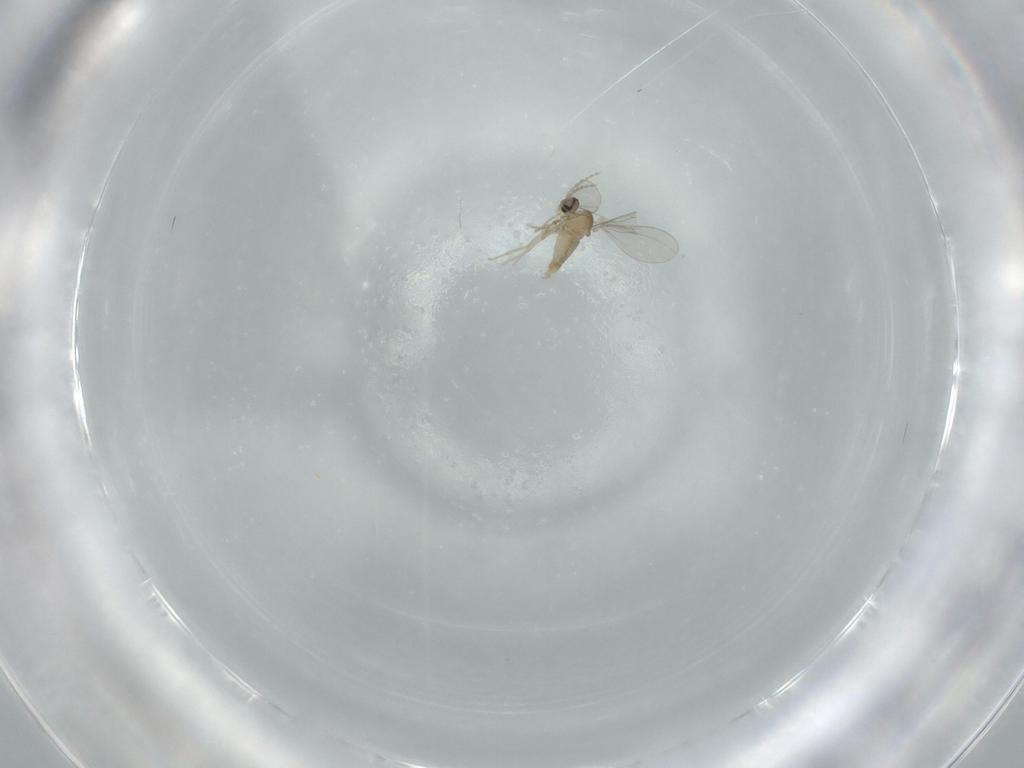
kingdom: Animalia
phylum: Arthropoda
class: Insecta
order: Diptera
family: Cecidomyiidae
